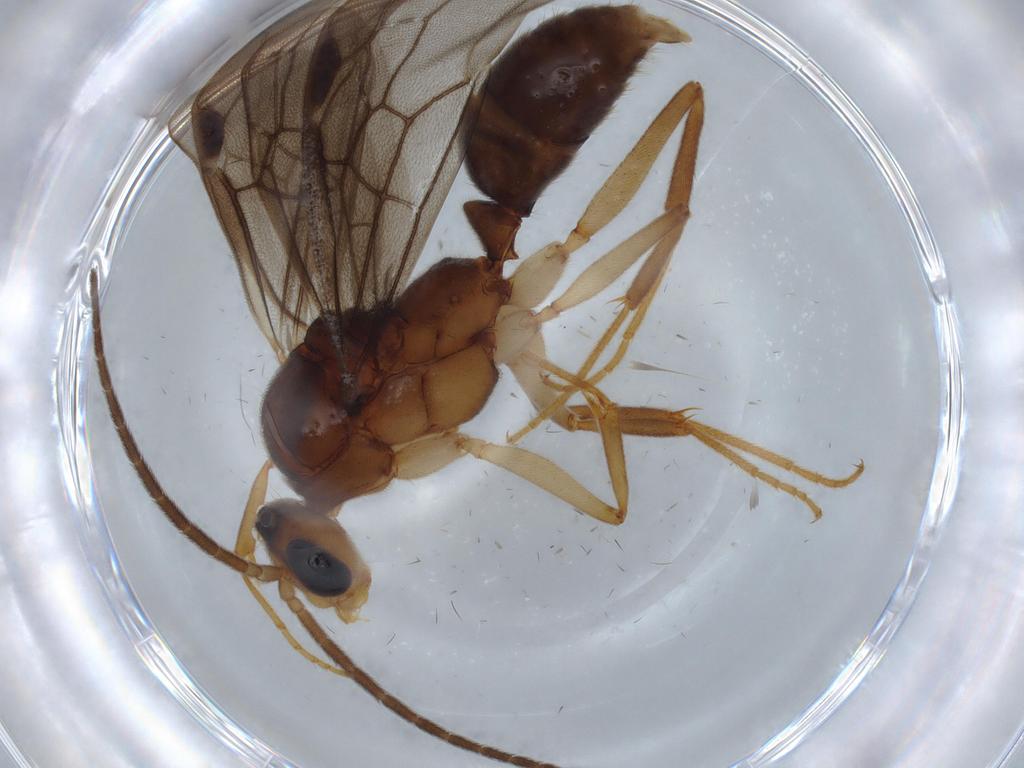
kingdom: Animalia
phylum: Arthropoda
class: Insecta
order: Hymenoptera
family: Formicidae
